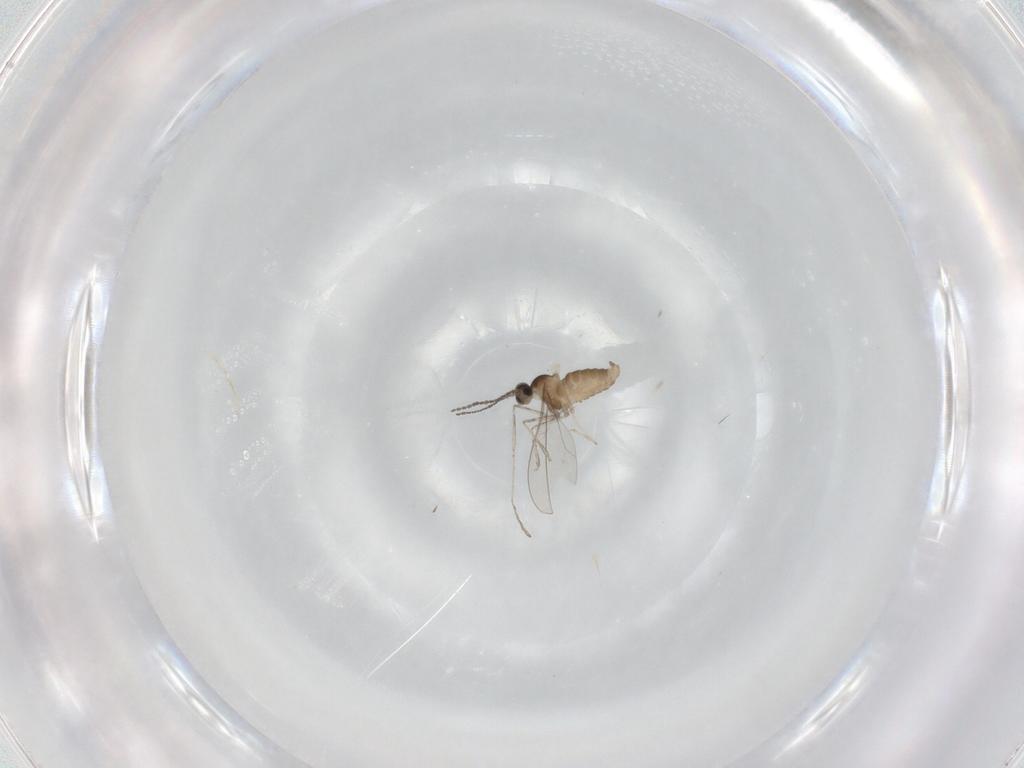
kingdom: Animalia
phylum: Arthropoda
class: Insecta
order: Diptera
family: Cecidomyiidae
